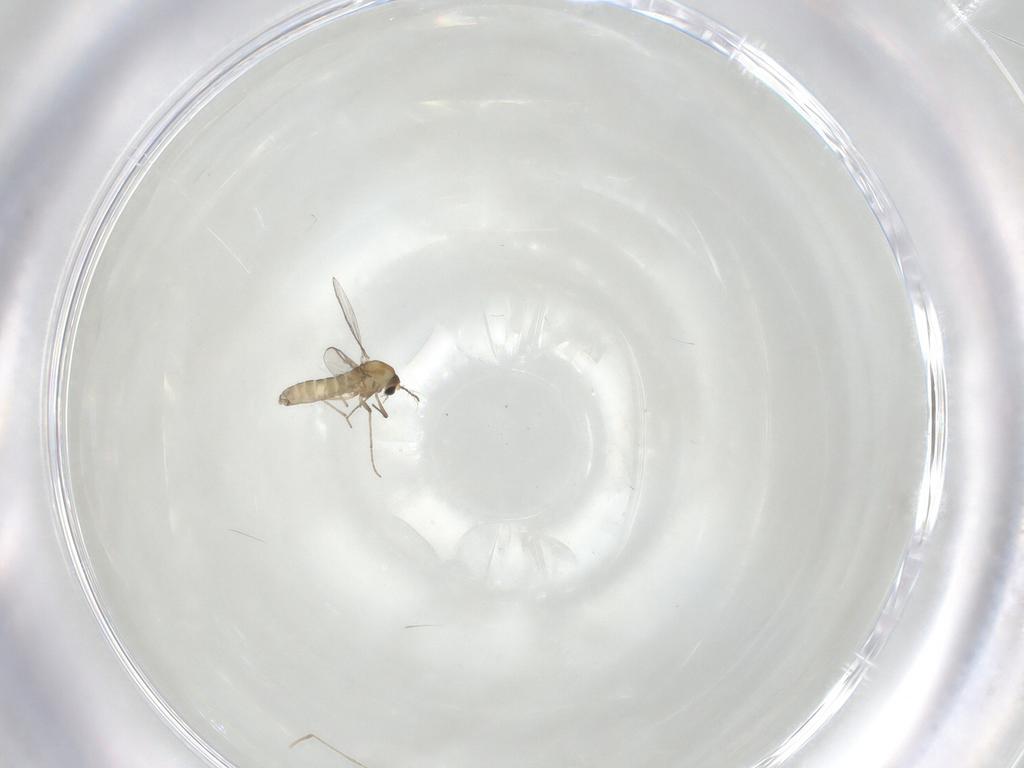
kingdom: Animalia
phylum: Arthropoda
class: Insecta
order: Diptera
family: Chironomidae
